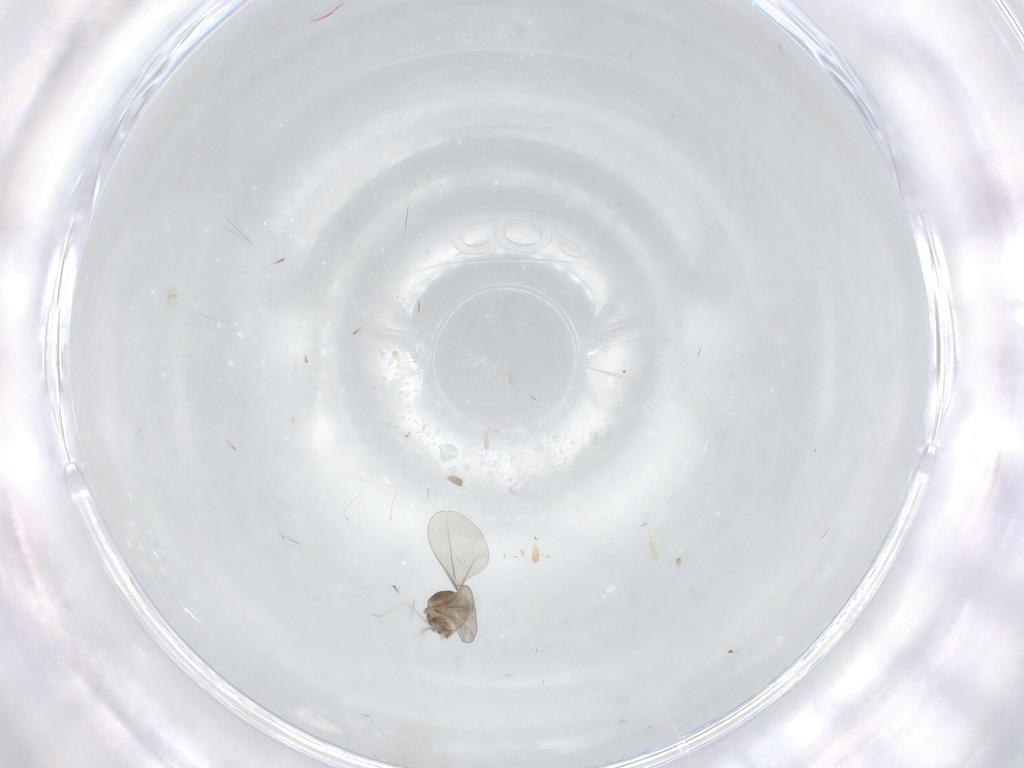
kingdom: Animalia
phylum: Arthropoda
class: Insecta
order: Diptera
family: Cecidomyiidae
